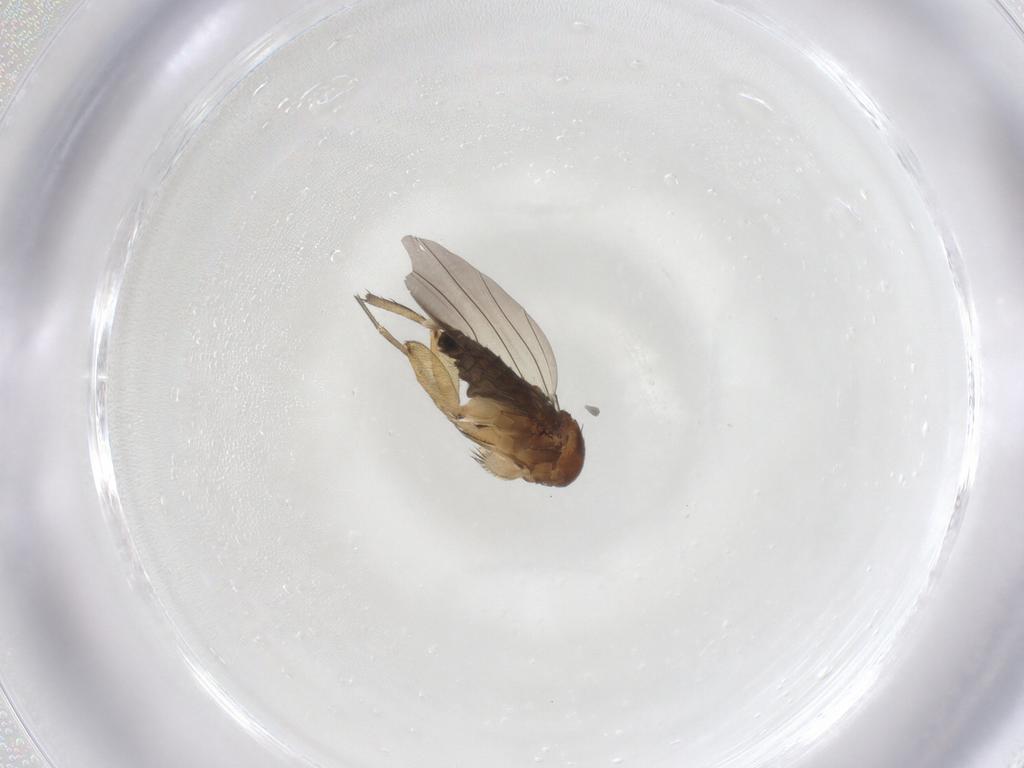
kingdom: Animalia
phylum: Arthropoda
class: Insecta
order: Diptera
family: Phoridae
